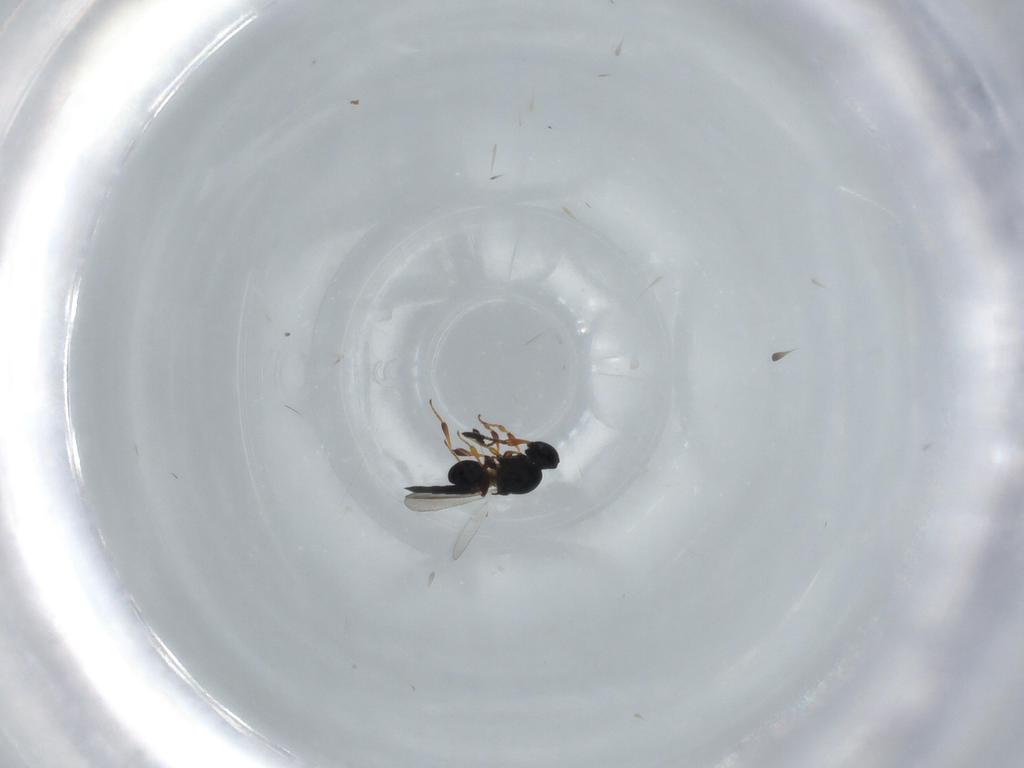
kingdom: Animalia
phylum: Arthropoda
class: Insecta
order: Hymenoptera
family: Platygastridae
